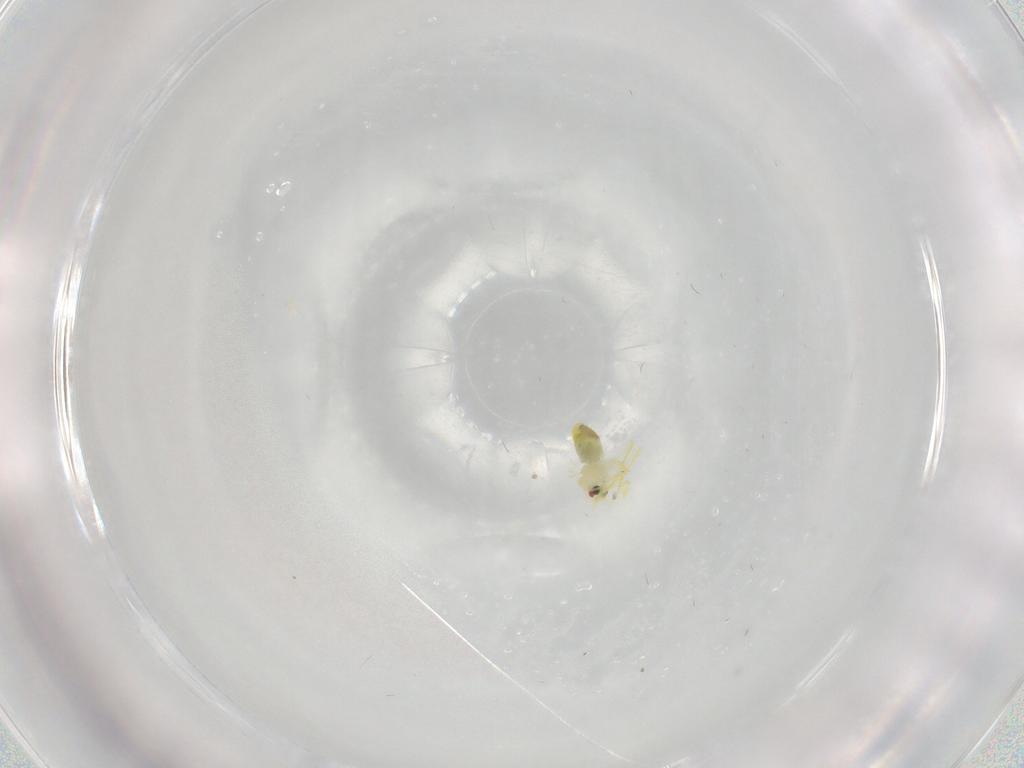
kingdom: Animalia
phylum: Arthropoda
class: Insecta
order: Hemiptera
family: Aleyrodidae
